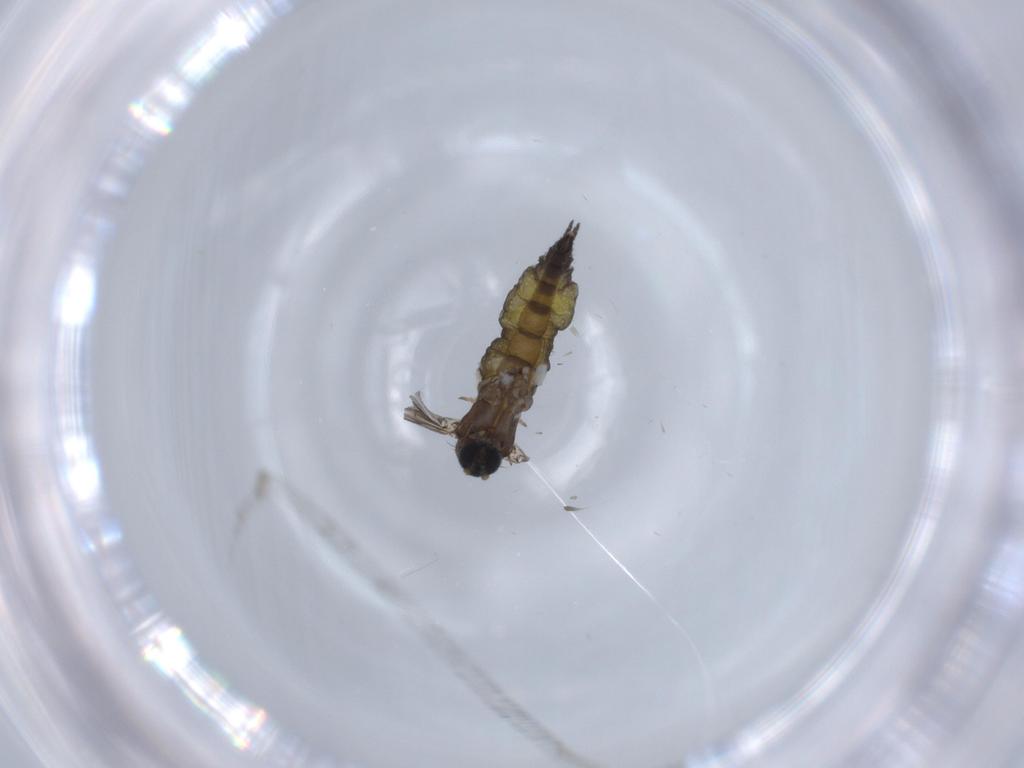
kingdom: Animalia
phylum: Arthropoda
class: Insecta
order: Diptera
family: Sciaridae
